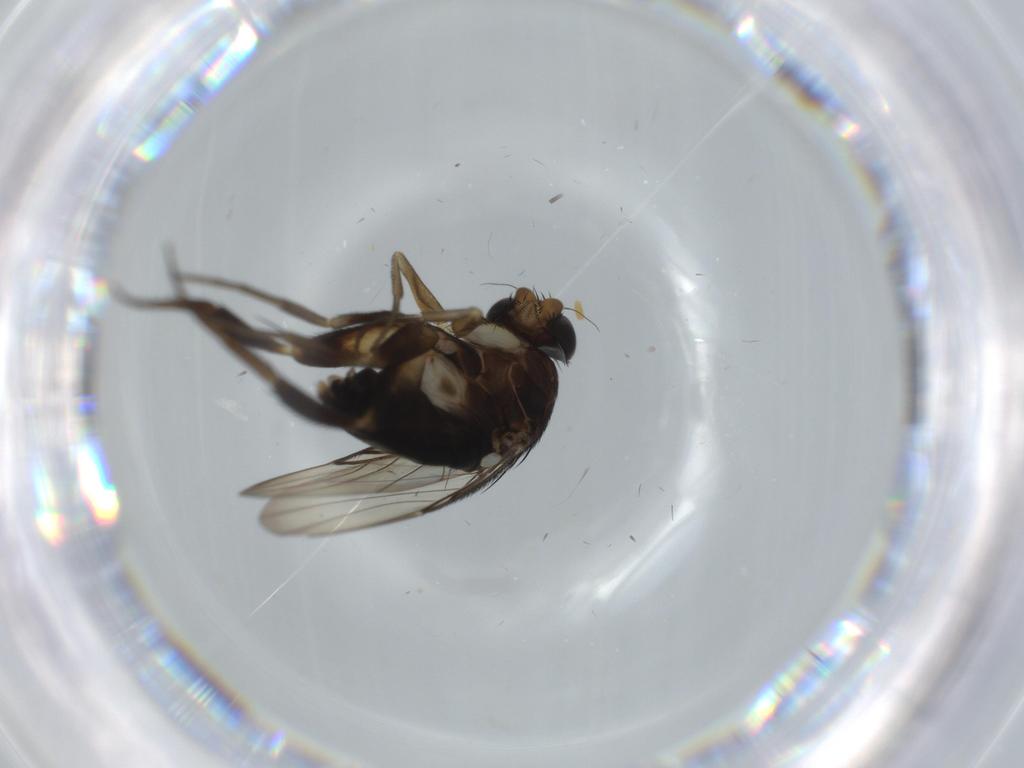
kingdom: Animalia
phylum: Arthropoda
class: Insecta
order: Diptera
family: Phoridae
